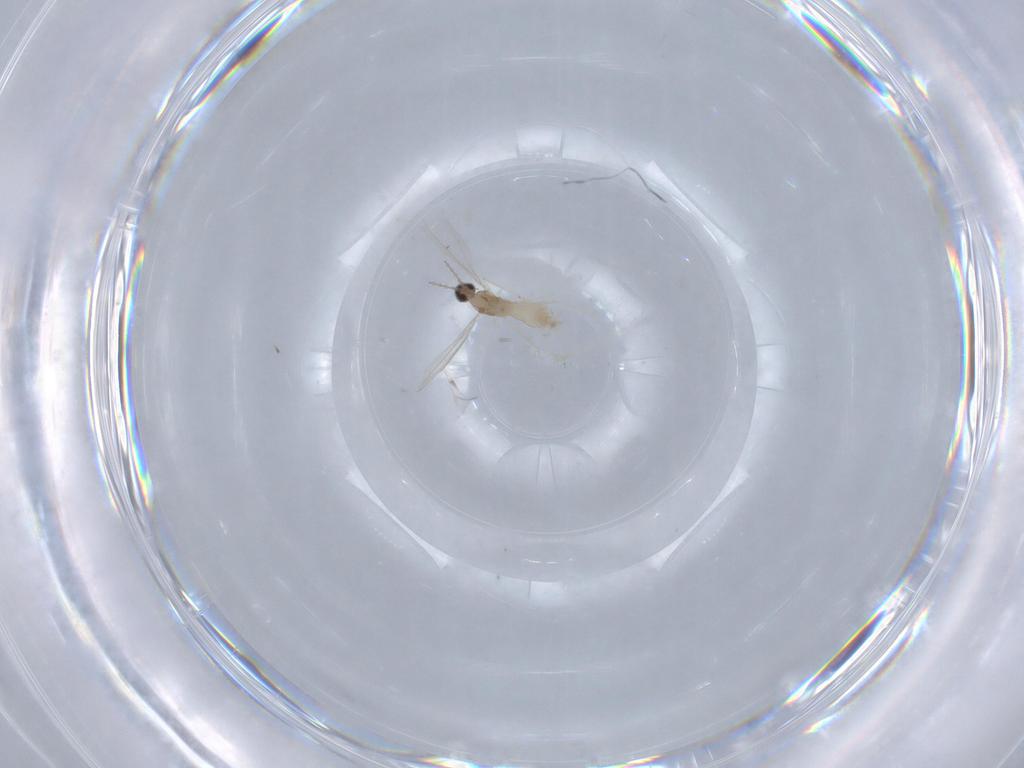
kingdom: Animalia
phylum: Arthropoda
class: Insecta
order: Diptera
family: Cecidomyiidae
